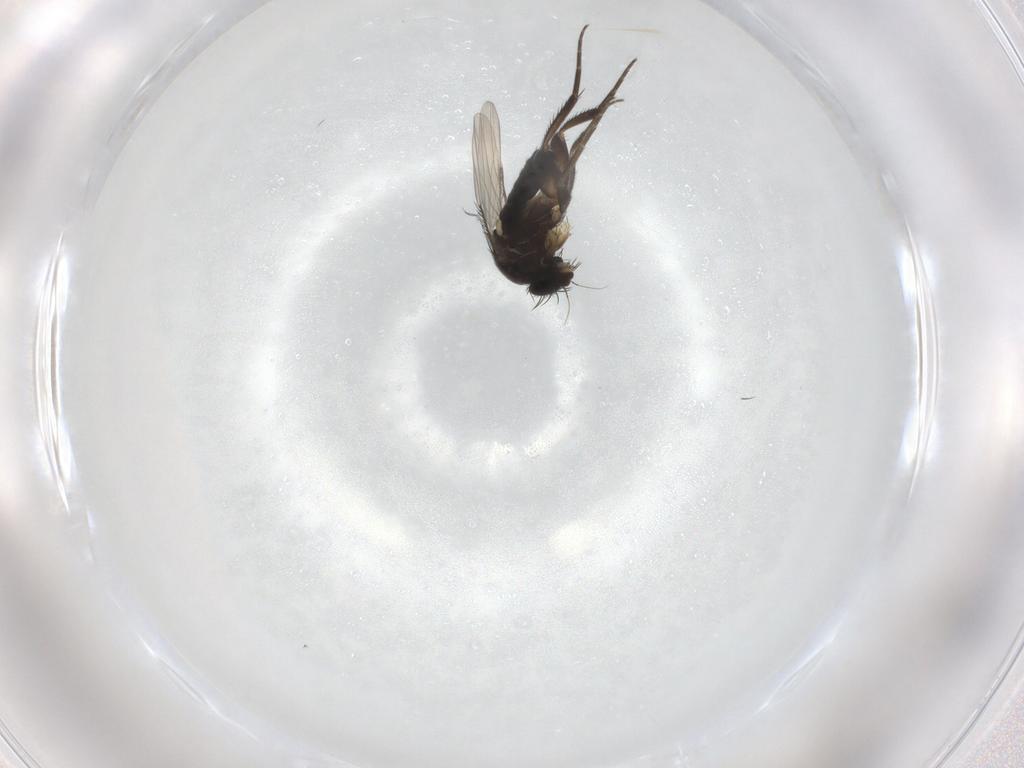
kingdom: Animalia
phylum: Arthropoda
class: Insecta
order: Diptera
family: Phoridae
